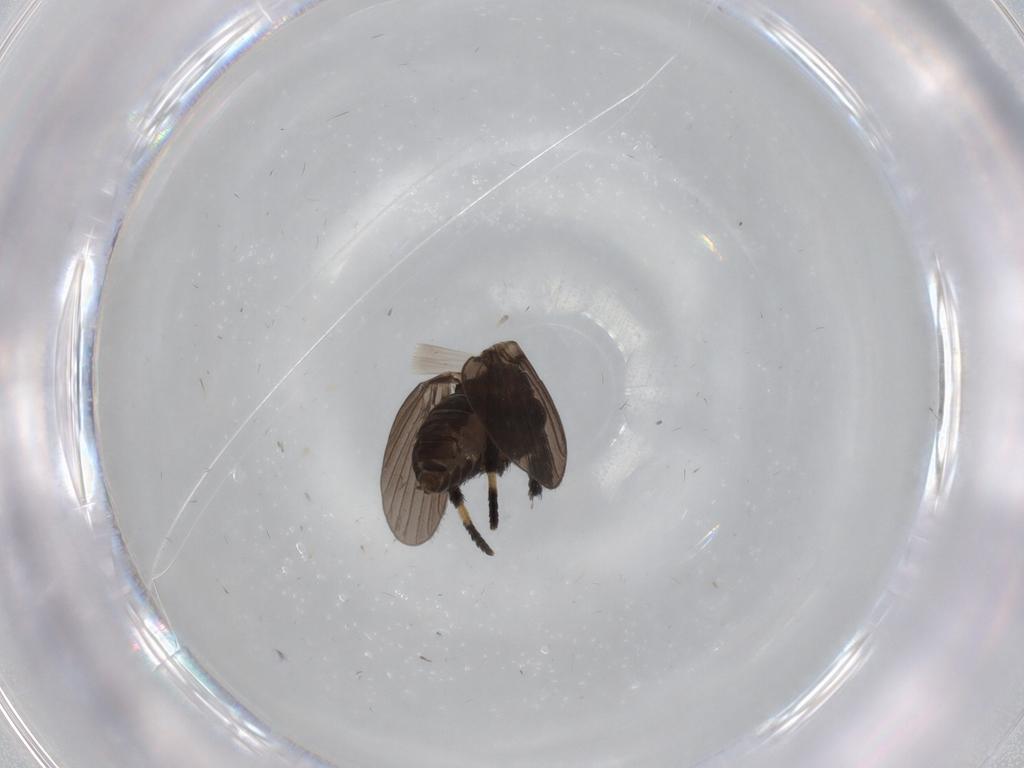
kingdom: Animalia
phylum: Arthropoda
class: Insecta
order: Diptera
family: Psychodidae
